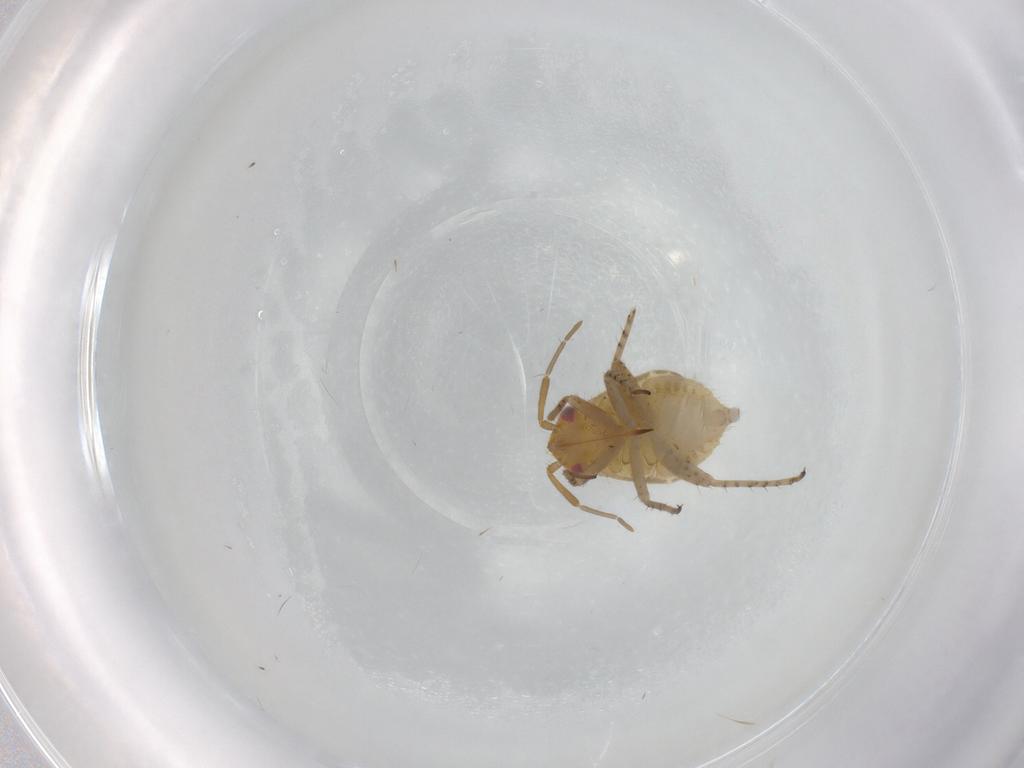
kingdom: Animalia
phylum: Arthropoda
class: Insecta
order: Hemiptera
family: Miridae
